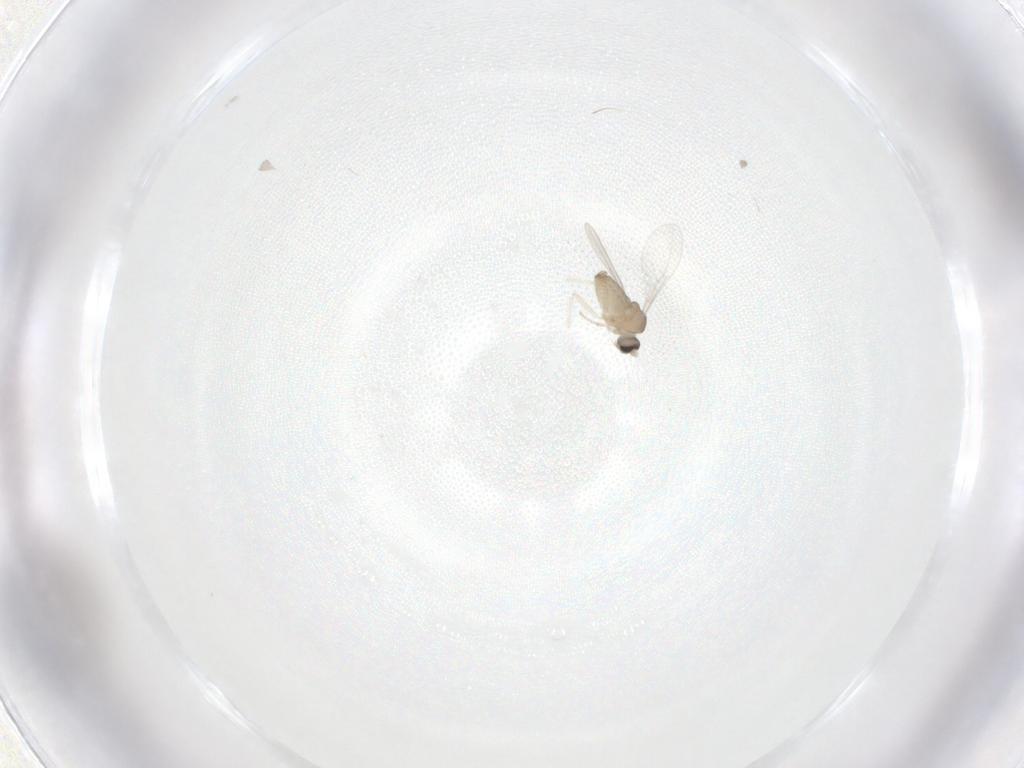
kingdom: Animalia
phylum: Arthropoda
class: Insecta
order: Diptera
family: Cecidomyiidae
